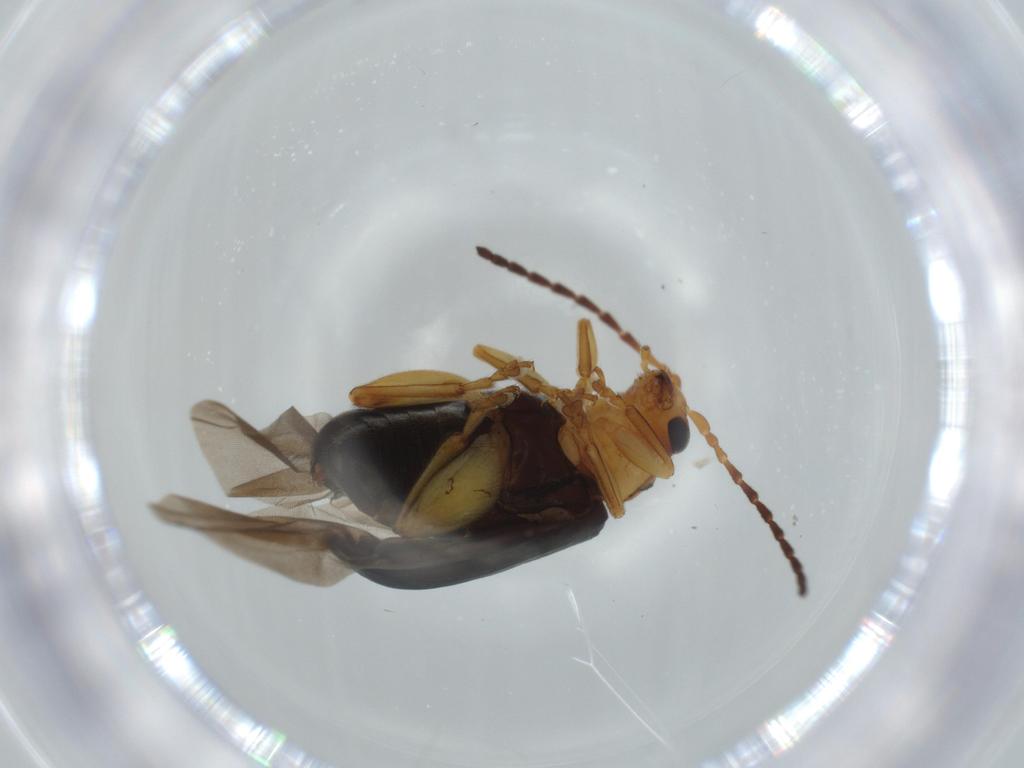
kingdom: Animalia
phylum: Arthropoda
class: Insecta
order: Coleoptera
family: Chrysomelidae
